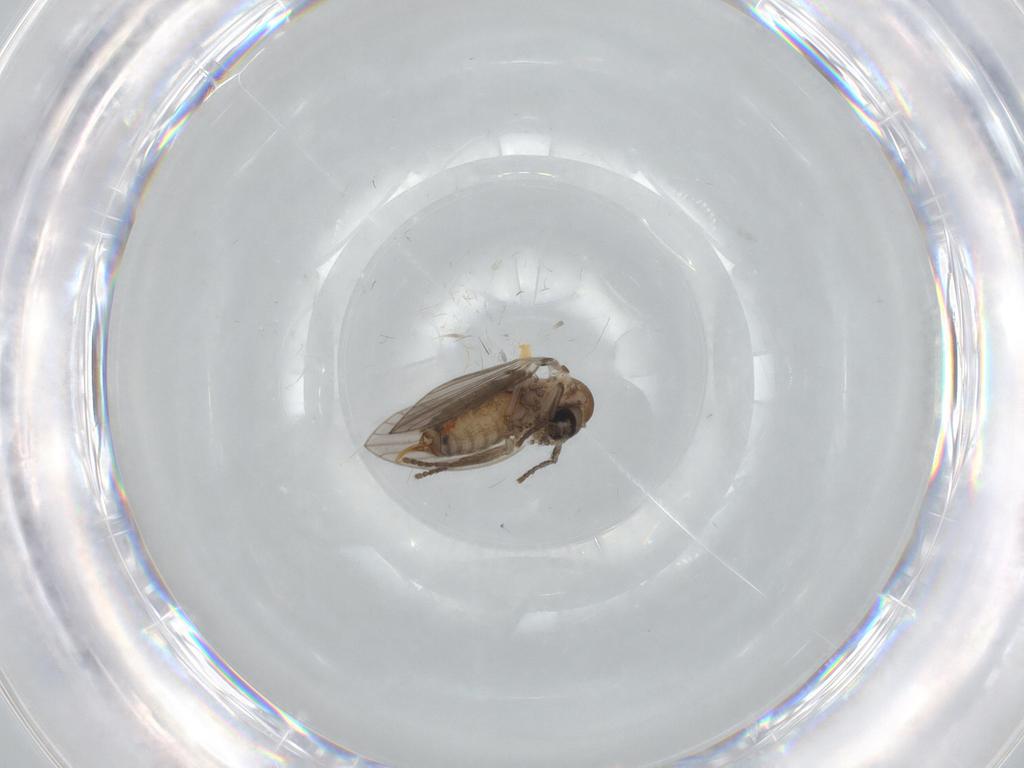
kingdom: Animalia
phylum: Arthropoda
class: Insecta
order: Diptera
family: Psychodidae
